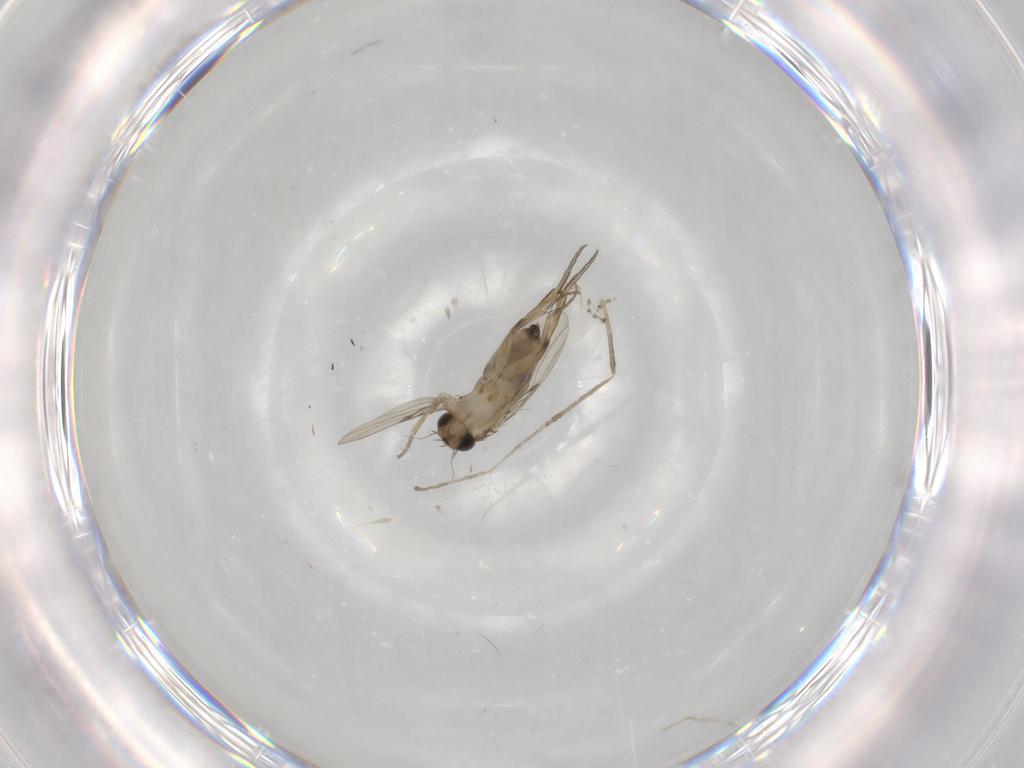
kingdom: Animalia
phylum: Arthropoda
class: Insecta
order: Diptera
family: Phoridae
